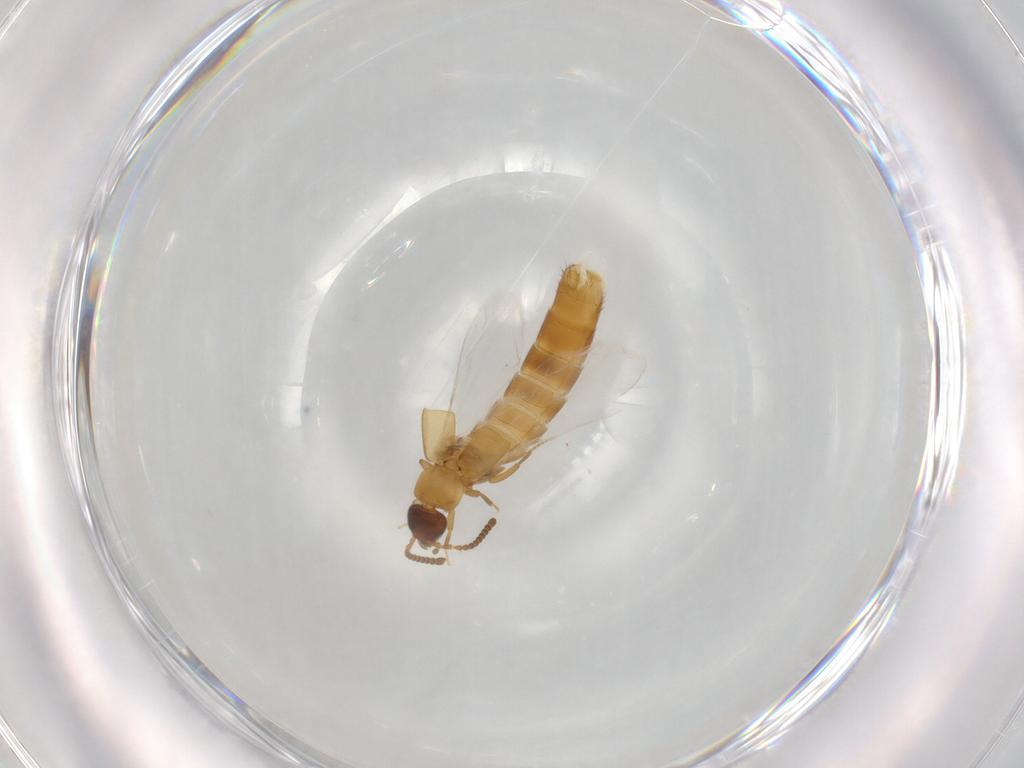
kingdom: Animalia
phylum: Arthropoda
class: Insecta
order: Coleoptera
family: Staphylinidae
